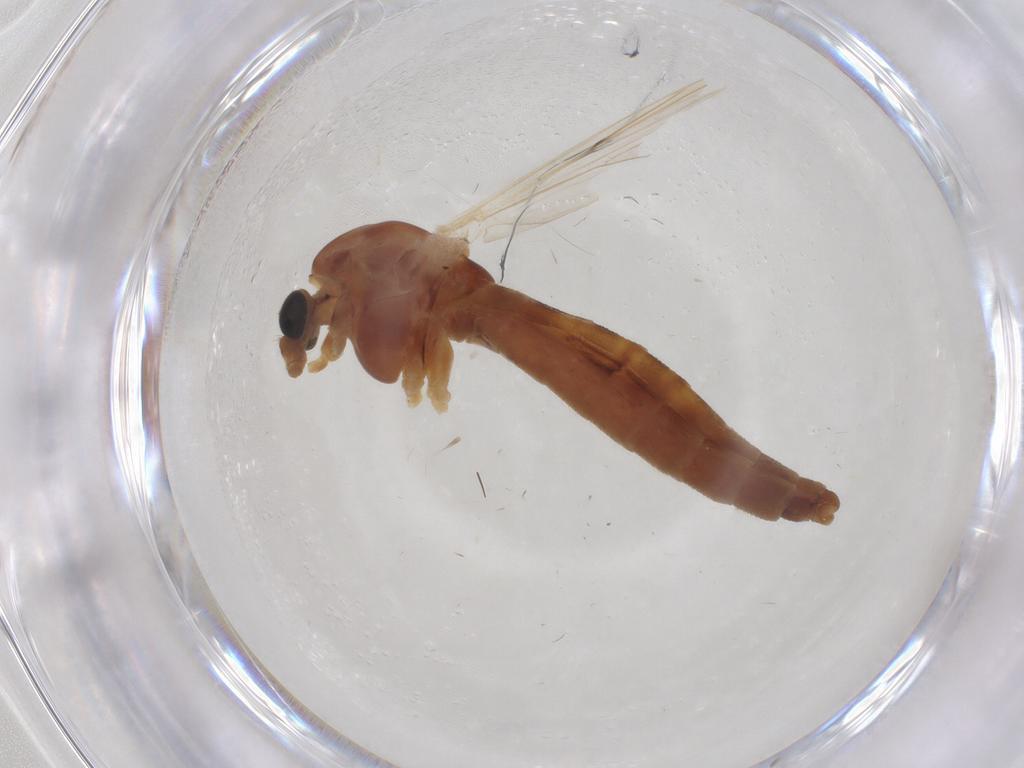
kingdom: Animalia
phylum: Arthropoda
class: Insecta
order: Diptera
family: Chironomidae
